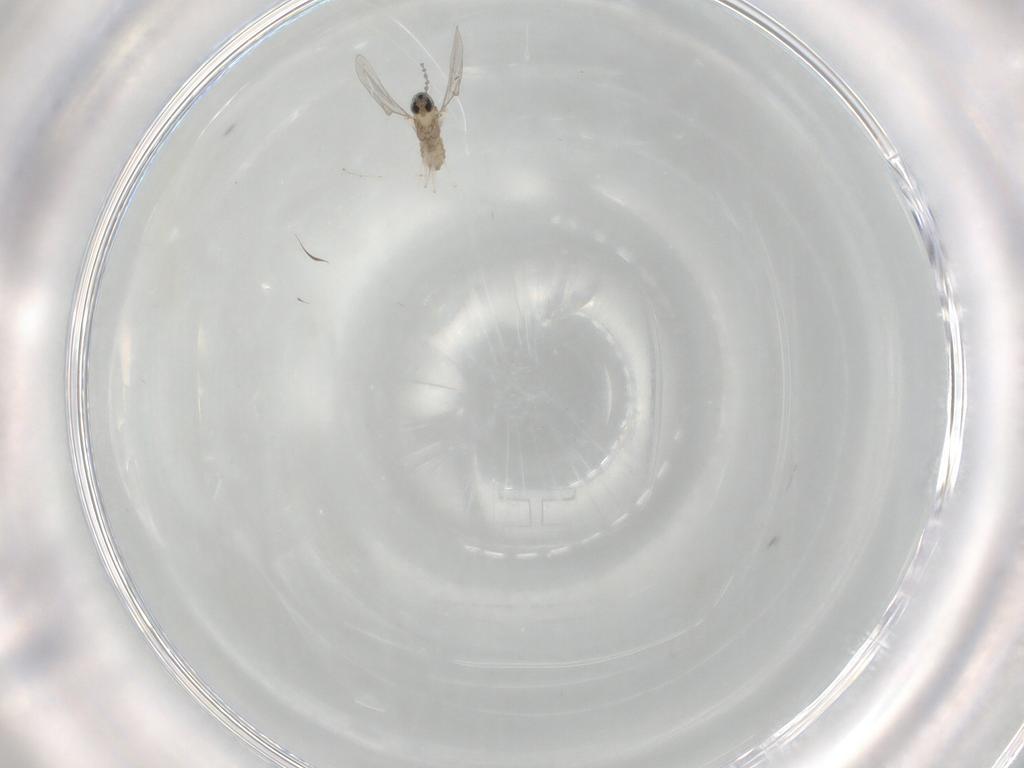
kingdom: Animalia
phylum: Arthropoda
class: Insecta
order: Diptera
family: Cecidomyiidae
